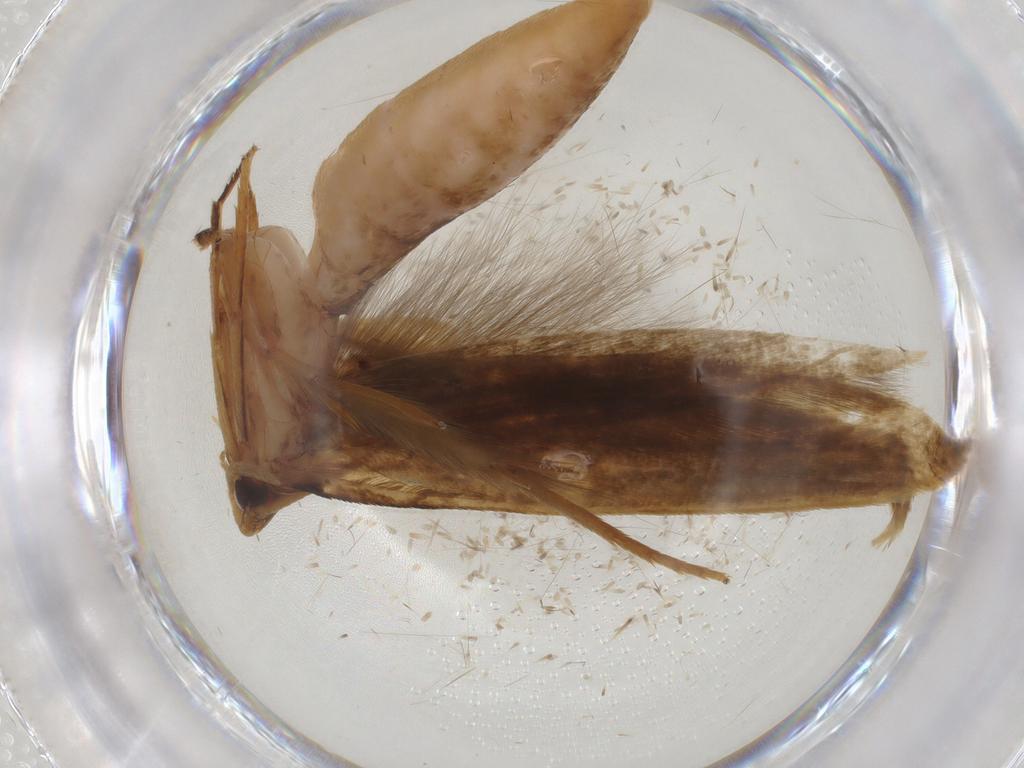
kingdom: Animalia
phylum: Arthropoda
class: Insecta
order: Lepidoptera
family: Tineidae
